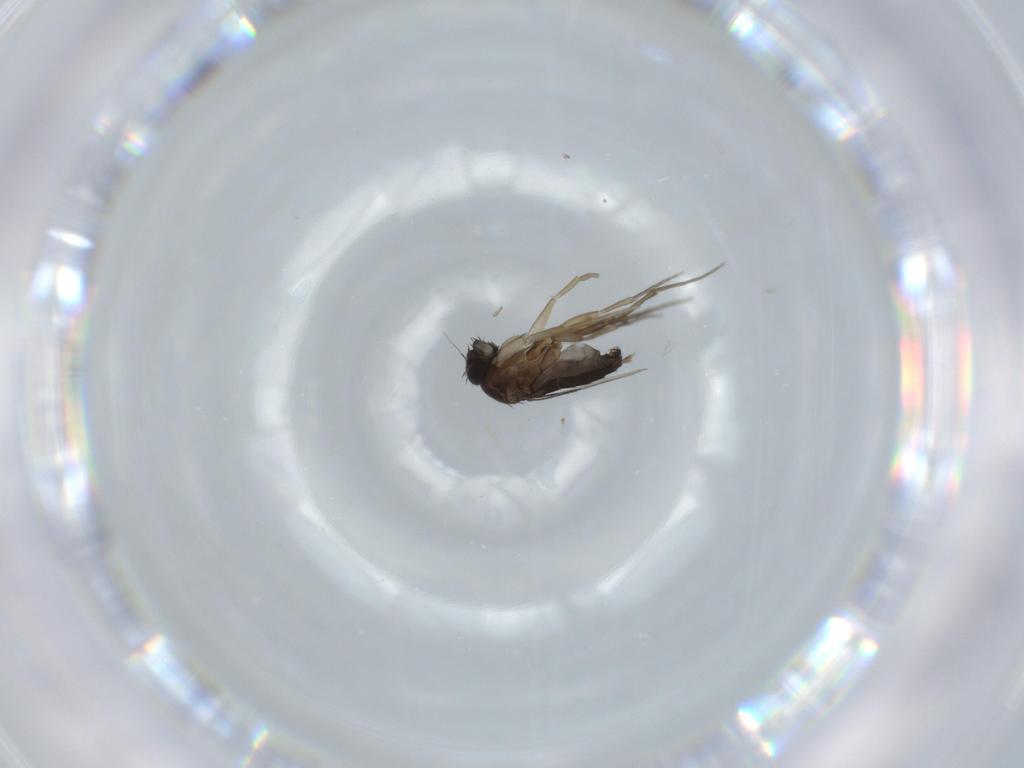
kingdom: Animalia
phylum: Arthropoda
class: Insecta
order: Diptera
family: Phoridae
